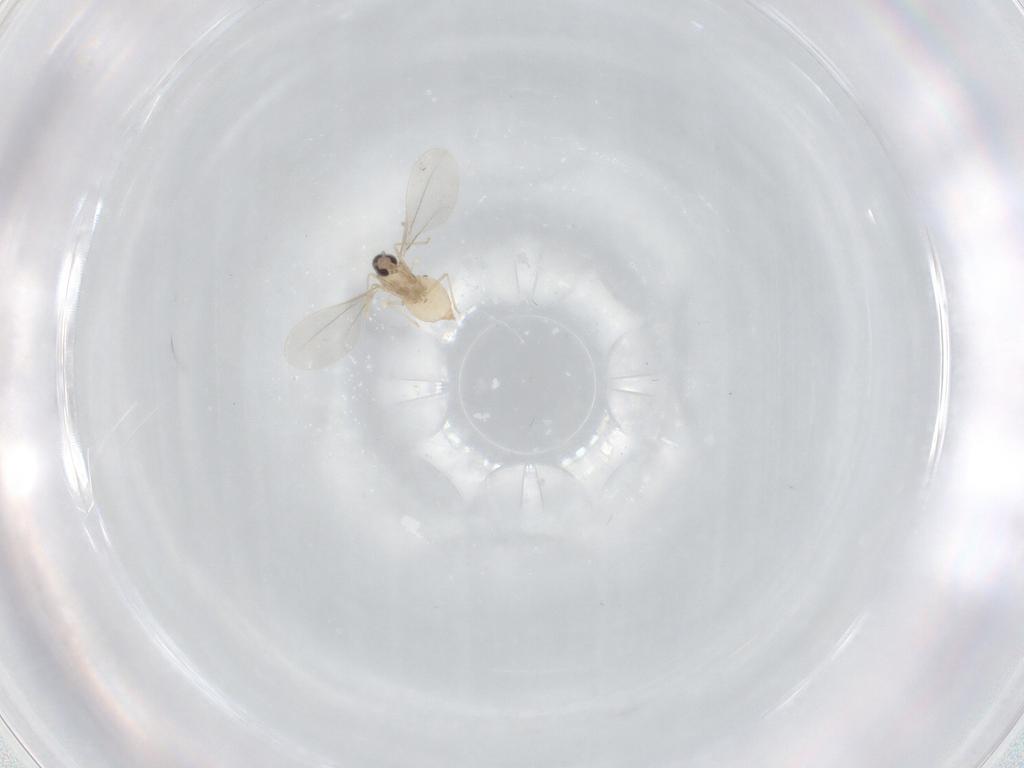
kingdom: Animalia
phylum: Arthropoda
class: Insecta
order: Diptera
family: Cecidomyiidae
